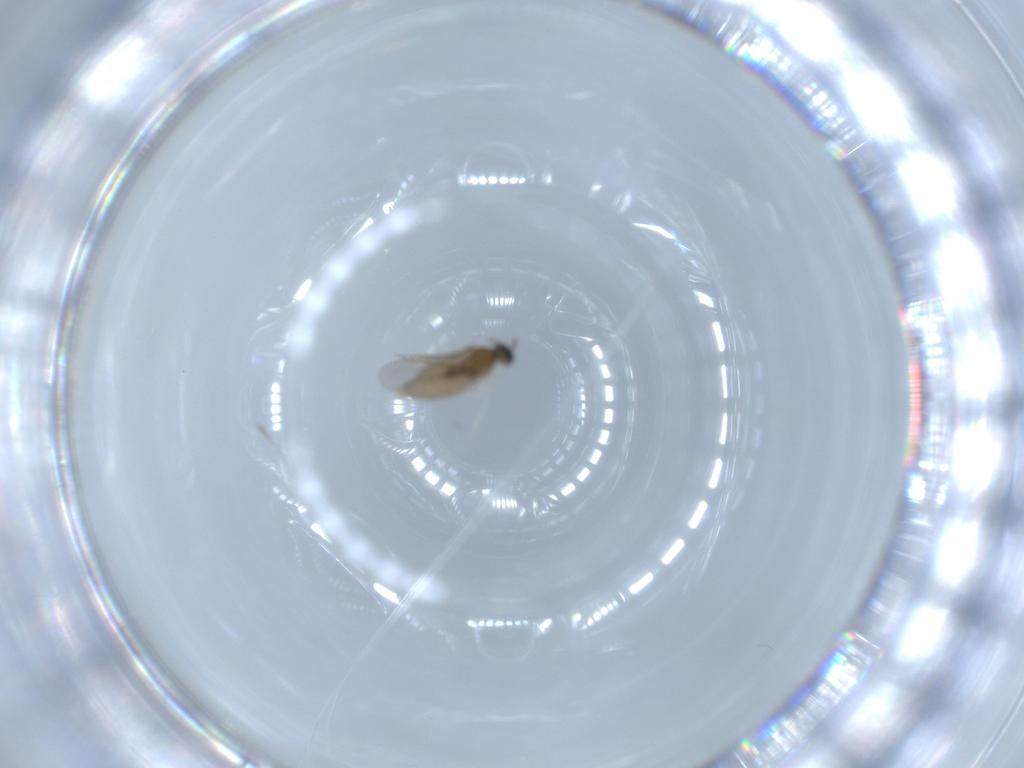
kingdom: Animalia
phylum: Arthropoda
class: Insecta
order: Diptera
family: Cecidomyiidae
